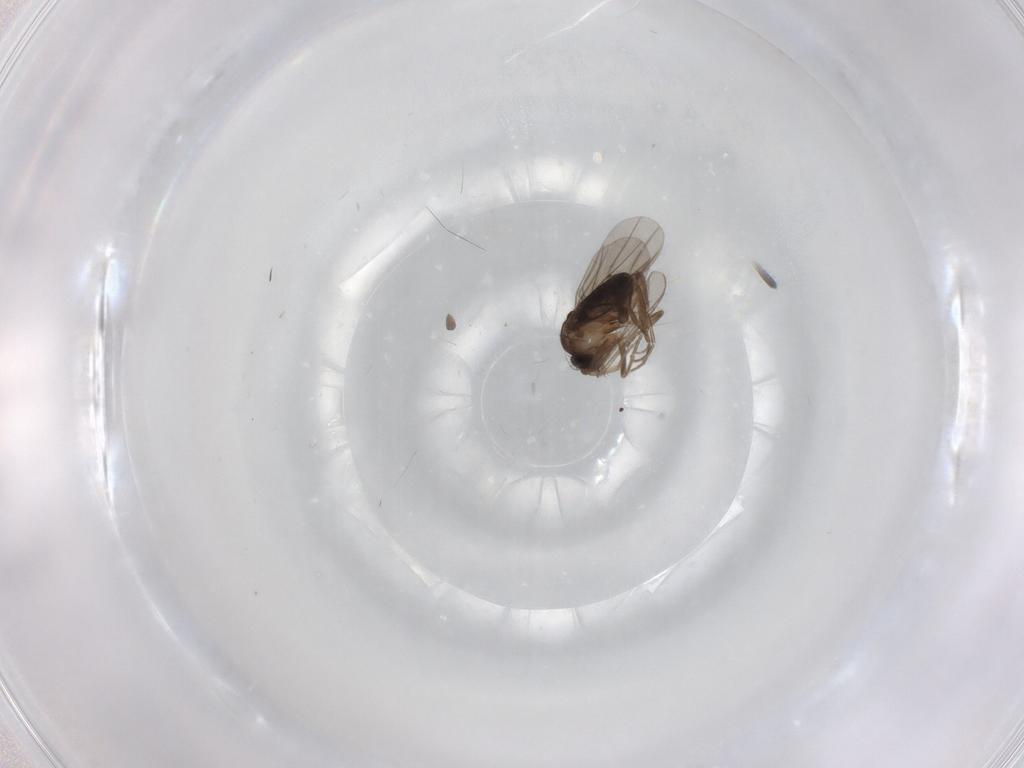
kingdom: Animalia
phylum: Arthropoda
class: Insecta
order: Diptera
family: Phoridae
